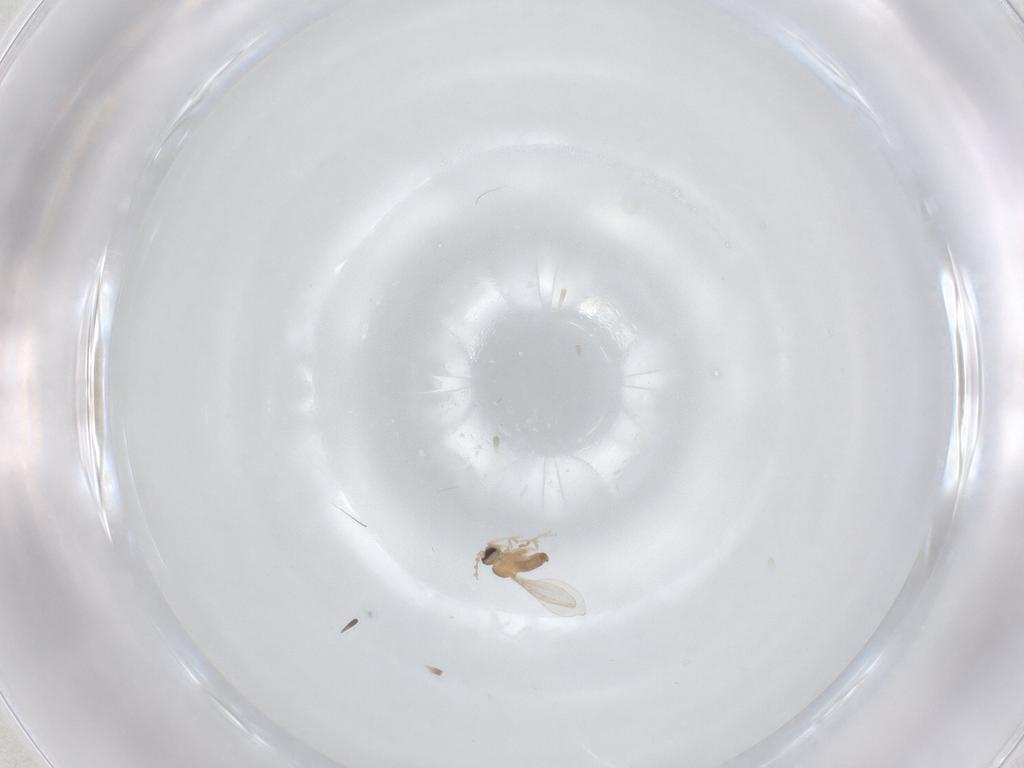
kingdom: Animalia
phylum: Arthropoda
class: Insecta
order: Diptera
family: Cecidomyiidae
